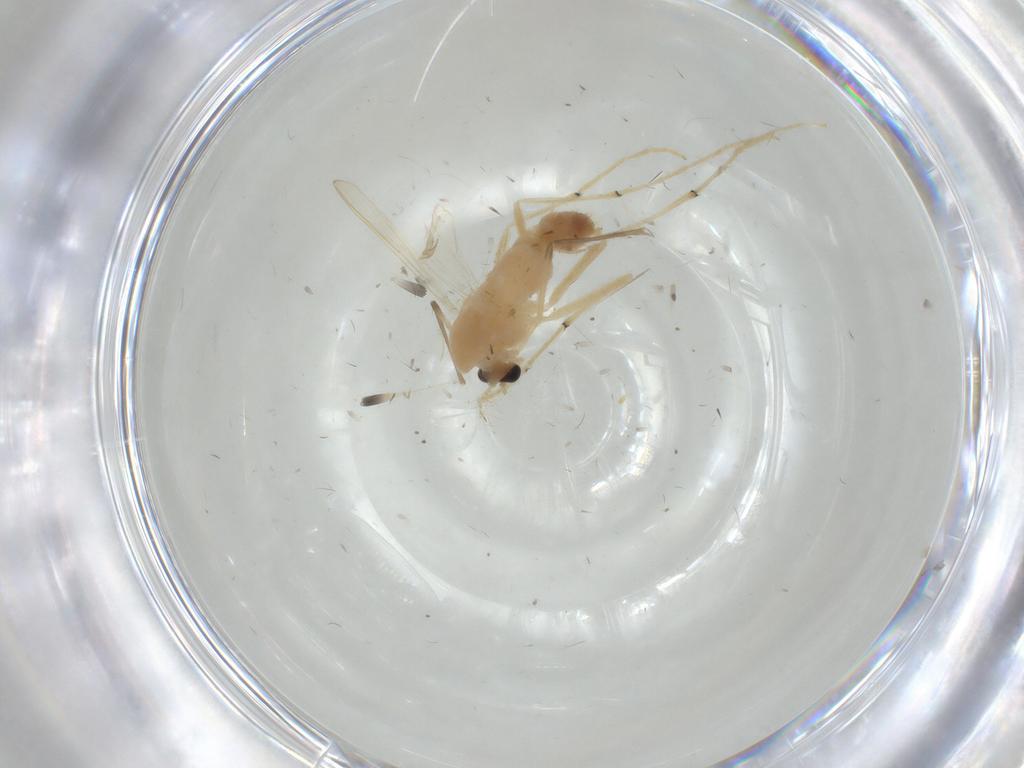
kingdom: Animalia
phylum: Arthropoda
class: Insecta
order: Diptera
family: Chironomidae
